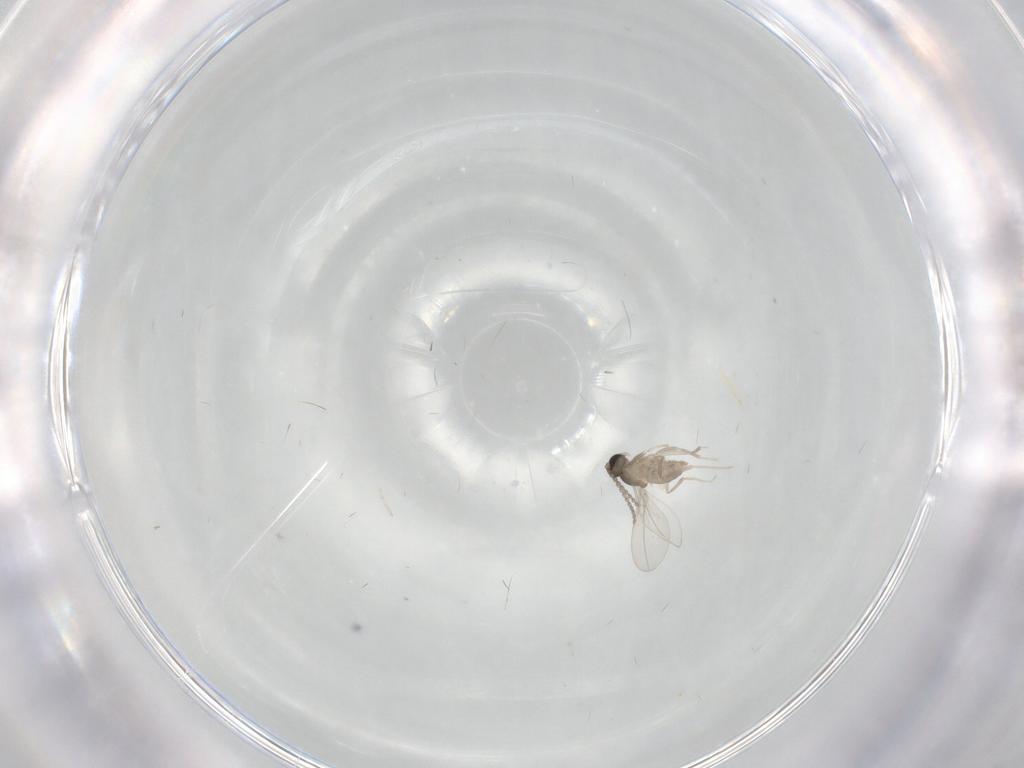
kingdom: Animalia
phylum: Arthropoda
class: Insecta
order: Diptera
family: Cecidomyiidae
